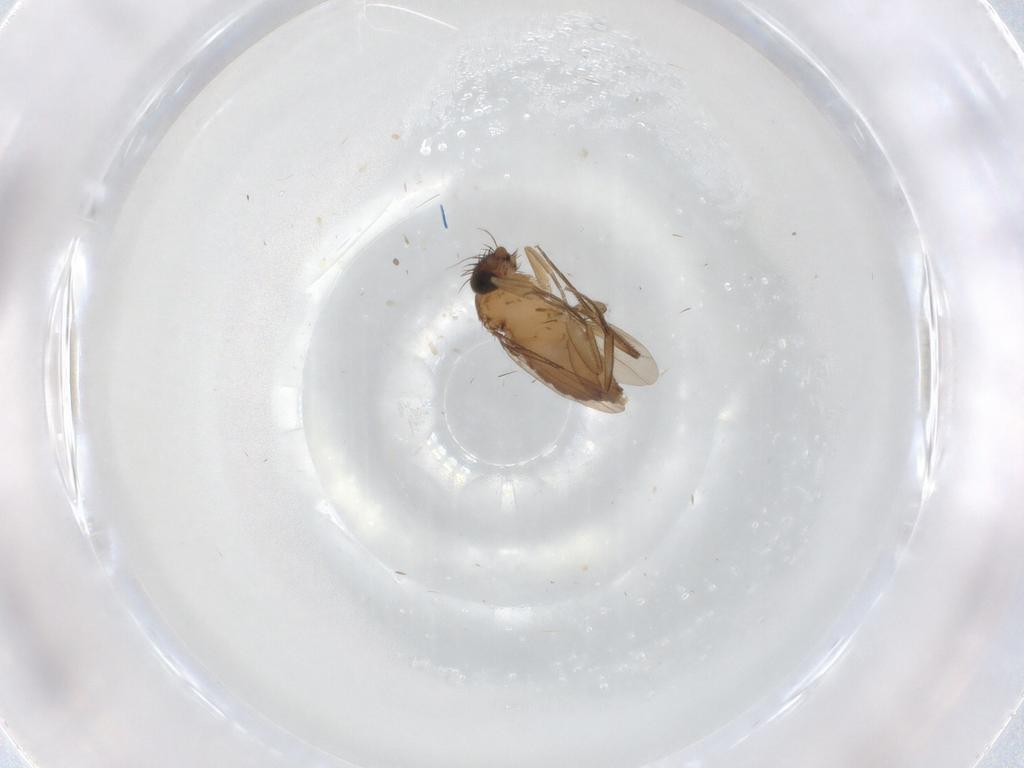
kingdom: Animalia
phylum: Arthropoda
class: Insecta
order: Diptera
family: Phoridae
